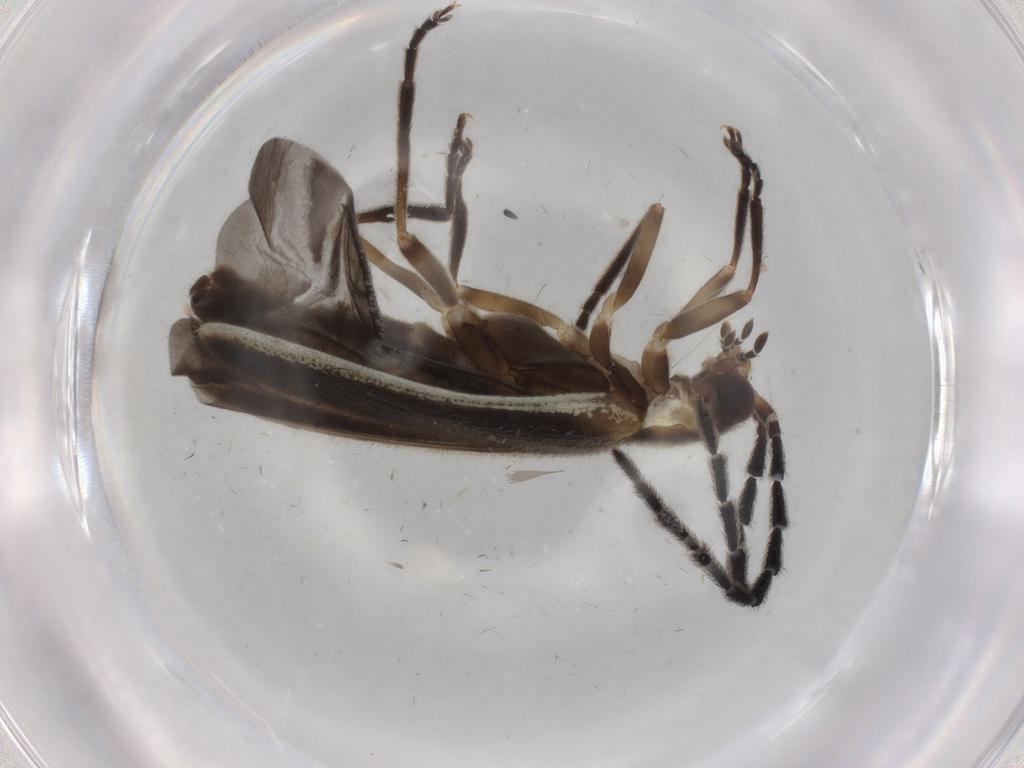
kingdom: Animalia
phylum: Arthropoda
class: Insecta
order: Coleoptera
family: Cantharidae
